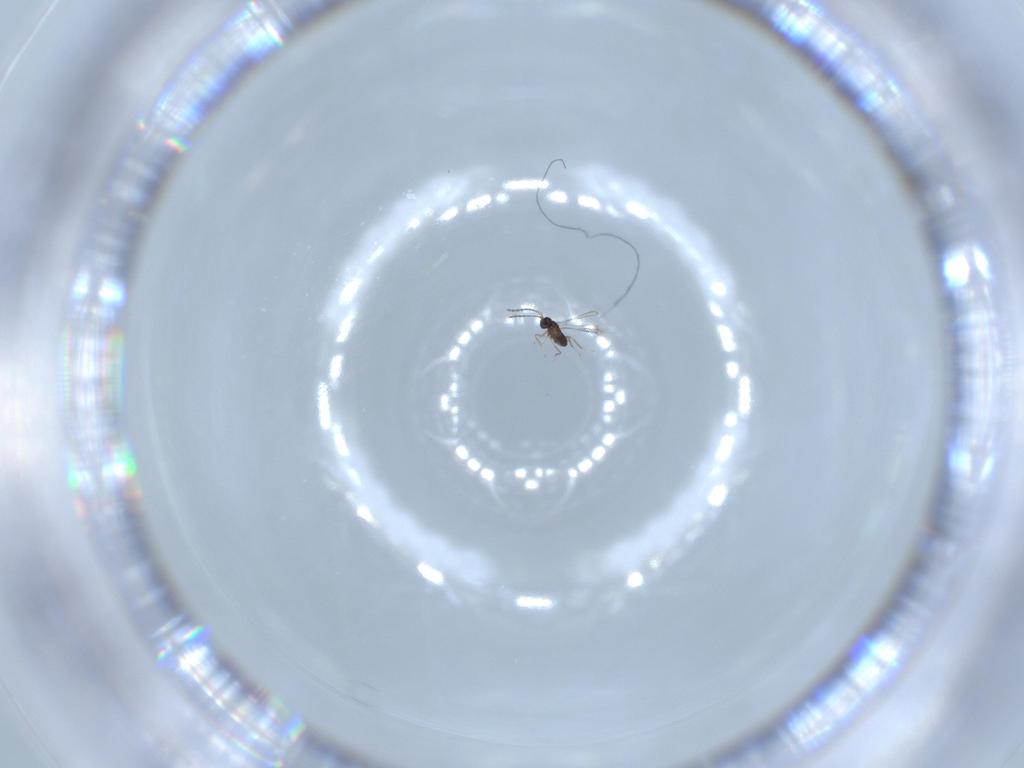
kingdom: Animalia
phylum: Arthropoda
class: Insecta
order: Hymenoptera
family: Mymaridae
